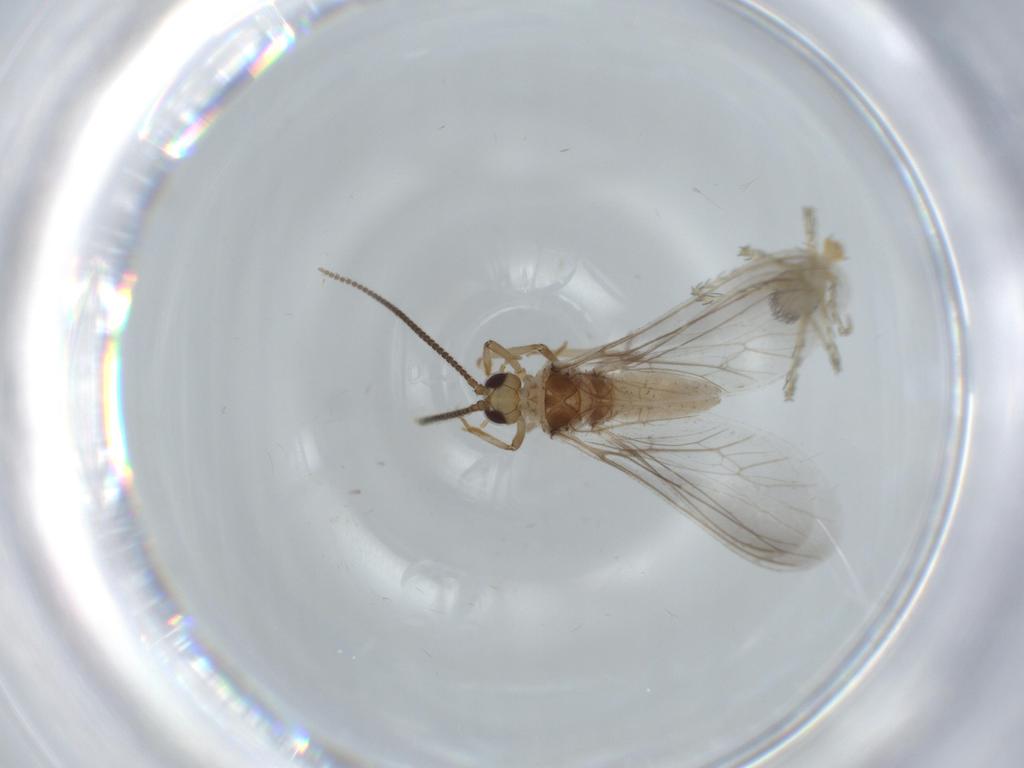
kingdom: Animalia
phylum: Arthropoda
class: Insecta
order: Neuroptera
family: Coniopterygidae
